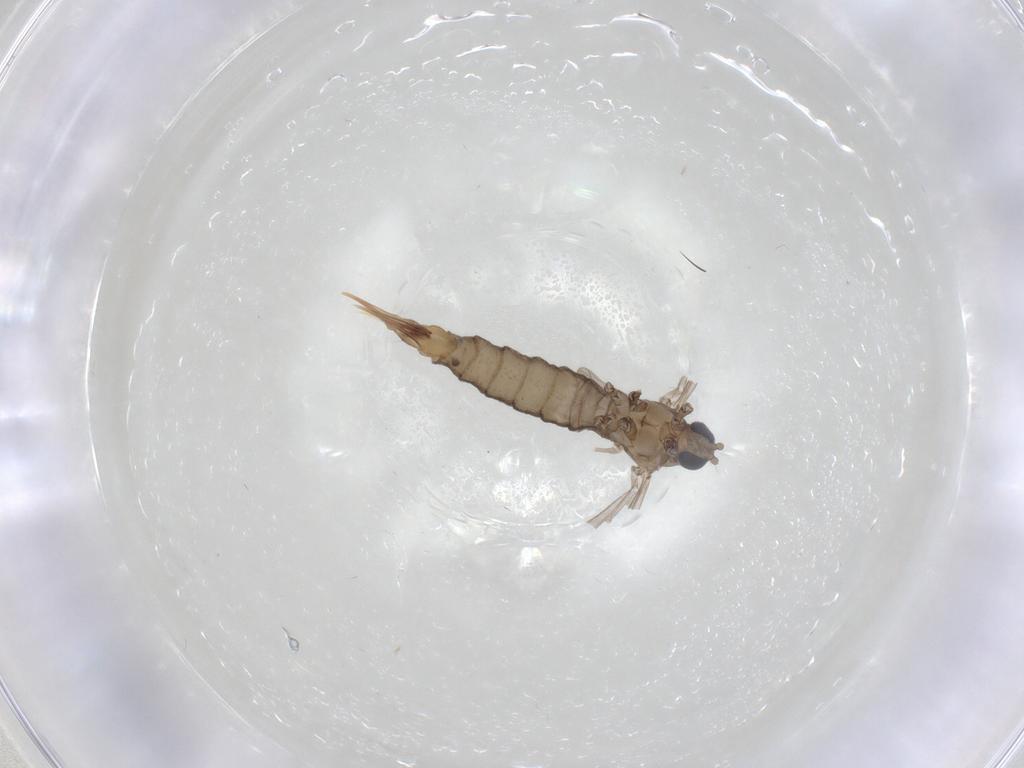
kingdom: Animalia
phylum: Arthropoda
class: Insecta
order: Diptera
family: Limoniidae
